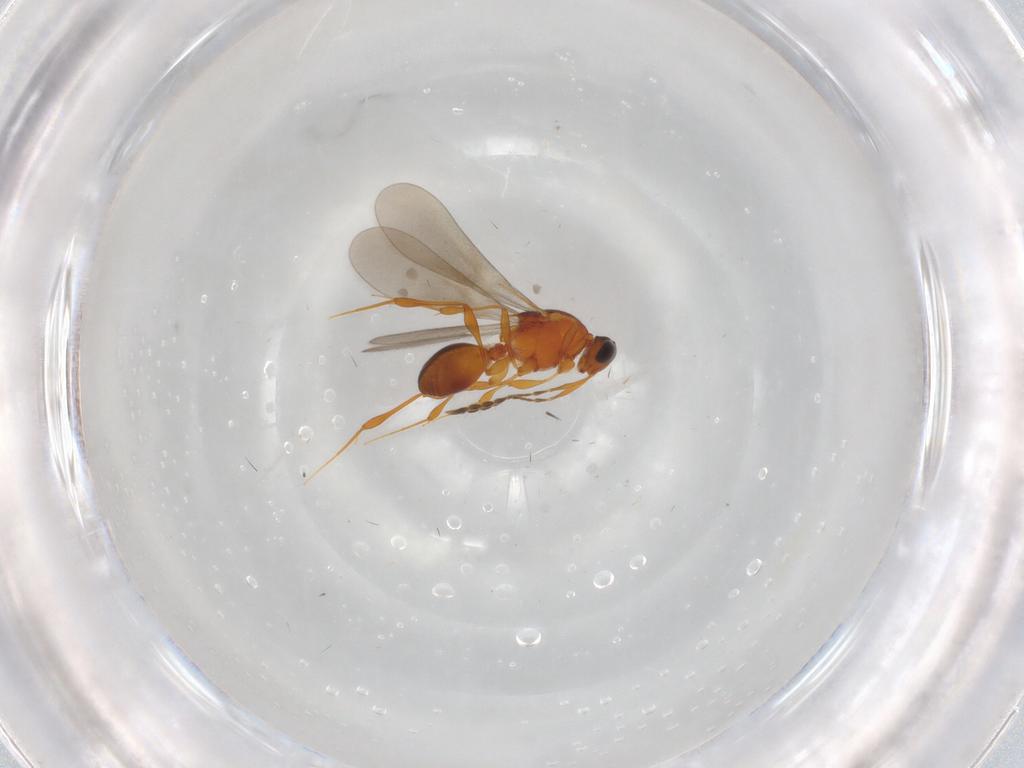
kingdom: Animalia
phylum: Arthropoda
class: Insecta
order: Hymenoptera
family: Platygastridae
